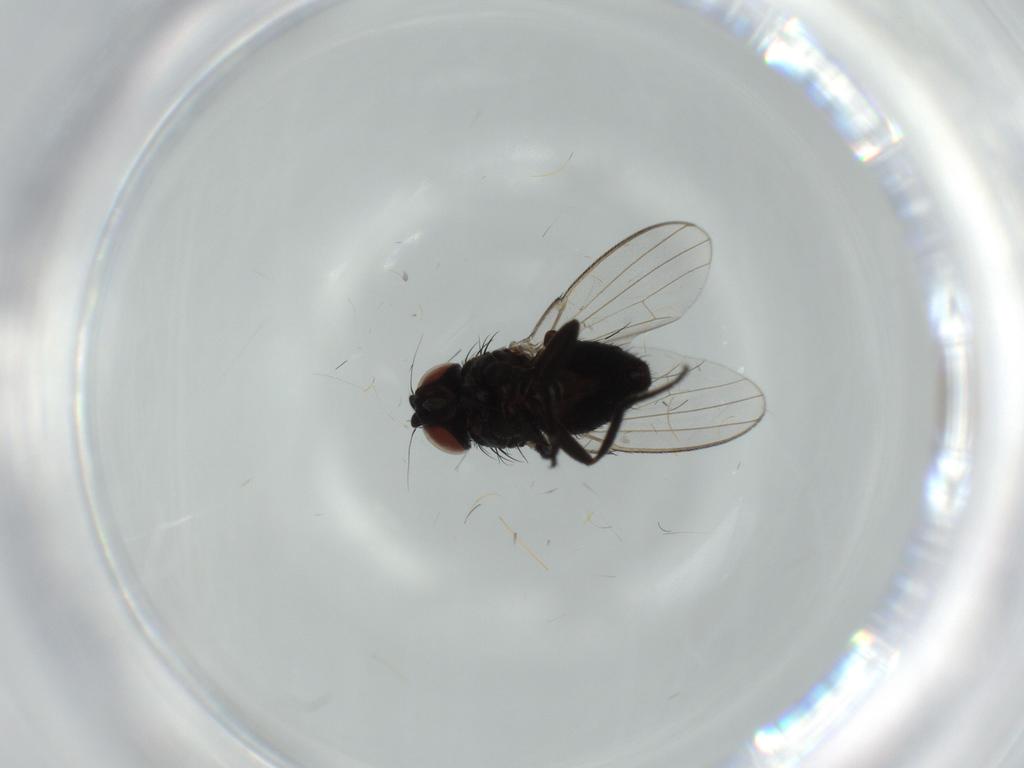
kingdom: Animalia
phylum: Arthropoda
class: Insecta
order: Diptera
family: Milichiidae
